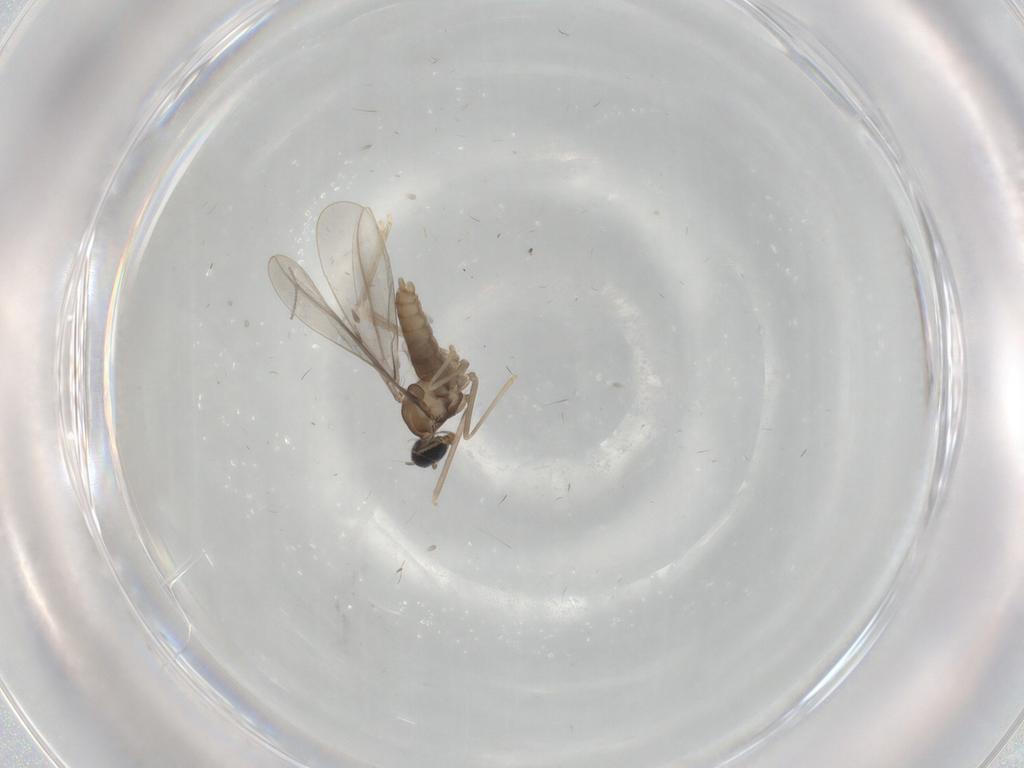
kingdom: Animalia
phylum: Arthropoda
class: Insecta
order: Diptera
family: Cecidomyiidae
